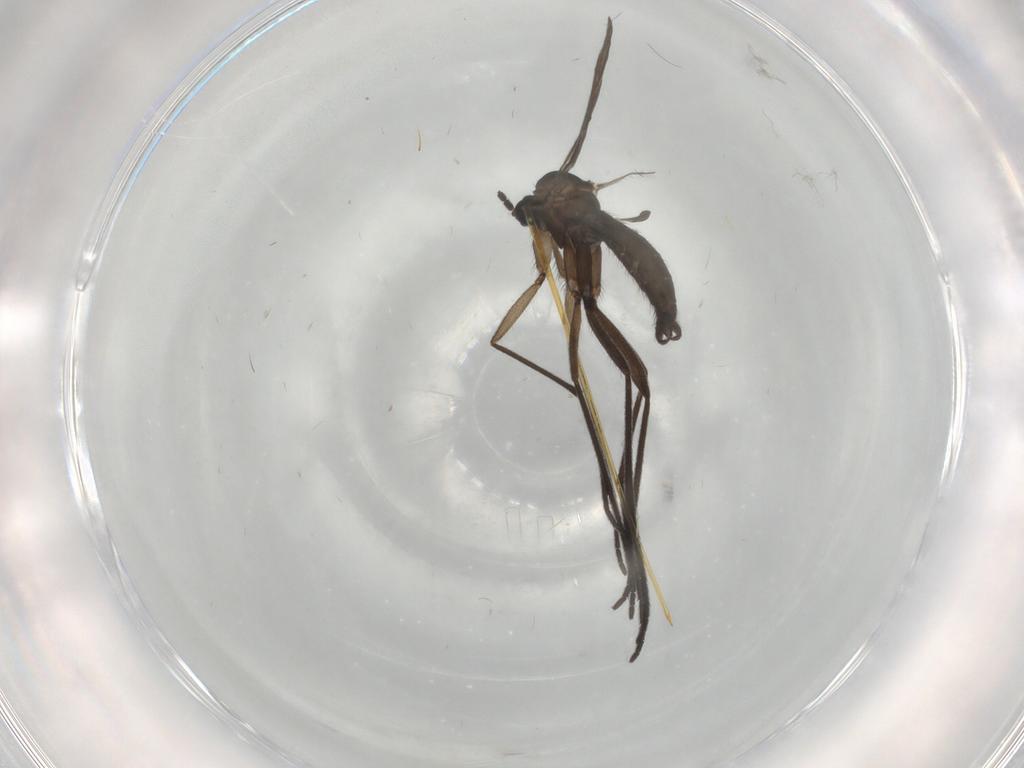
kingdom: Animalia
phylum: Arthropoda
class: Insecta
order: Diptera
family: Sciaridae
